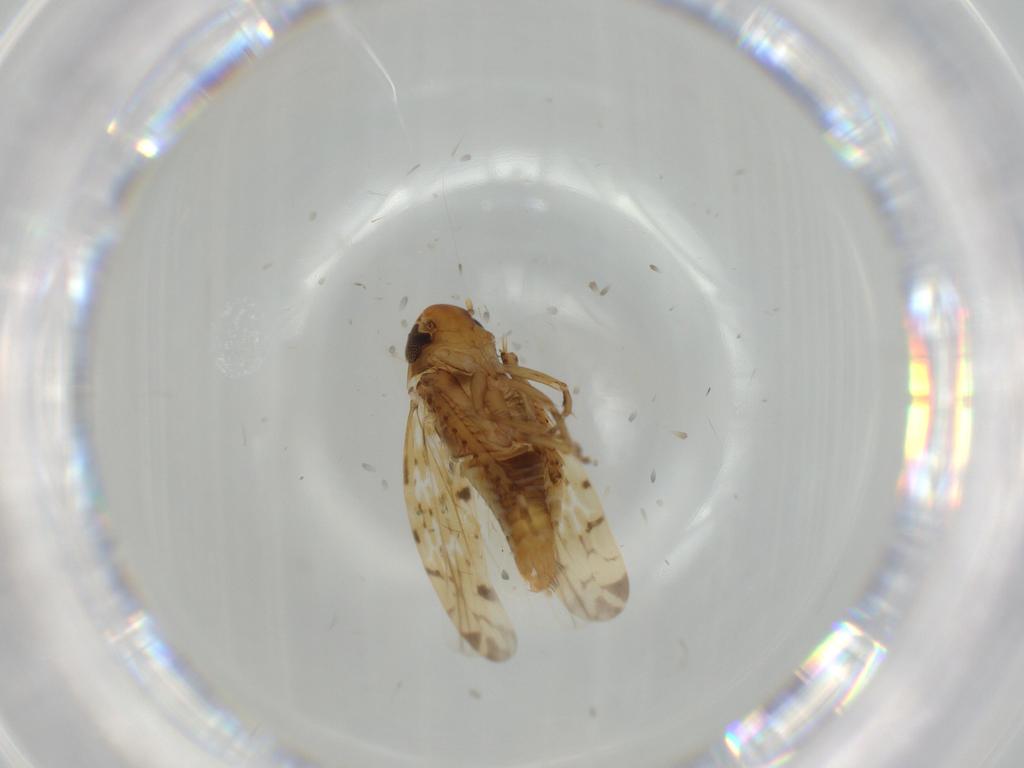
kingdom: Animalia
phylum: Arthropoda
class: Insecta
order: Hemiptera
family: Cicadellidae
